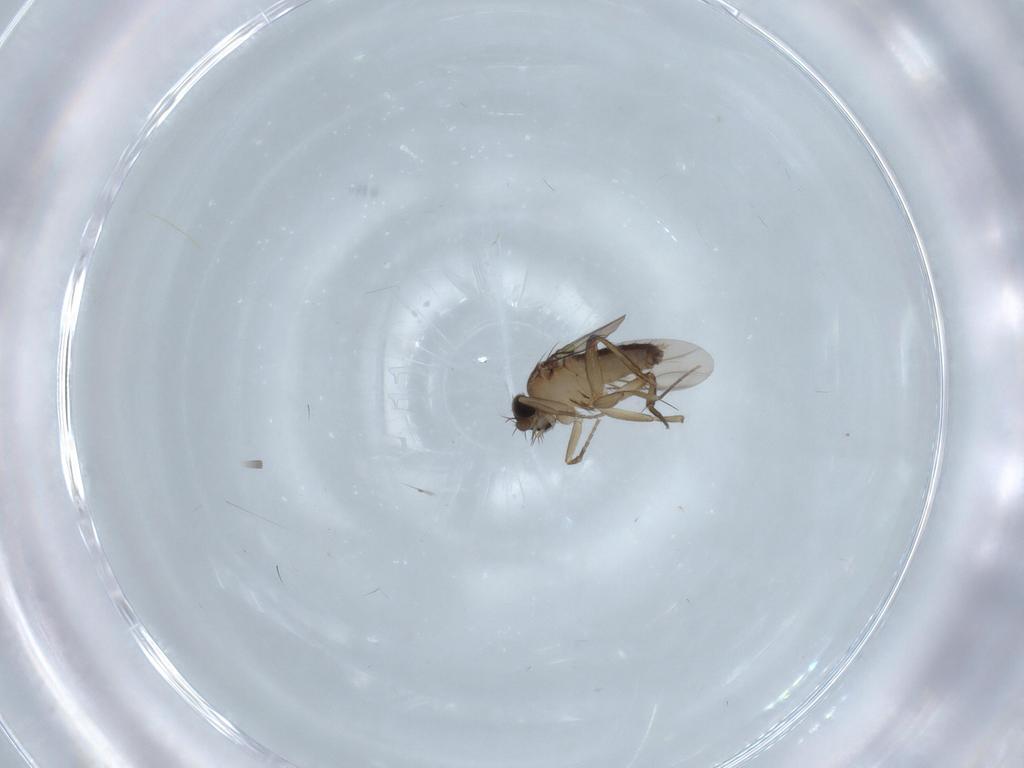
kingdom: Animalia
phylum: Arthropoda
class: Insecta
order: Diptera
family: Phoridae
